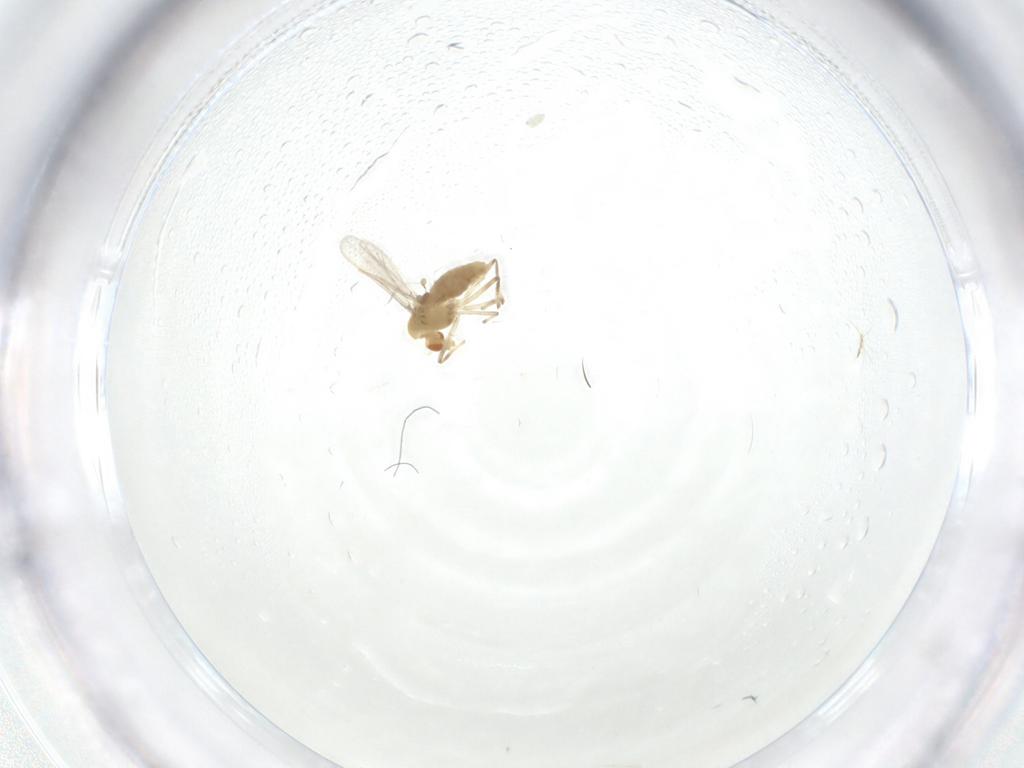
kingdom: Animalia
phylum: Arthropoda
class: Insecta
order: Diptera
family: Chironomidae
